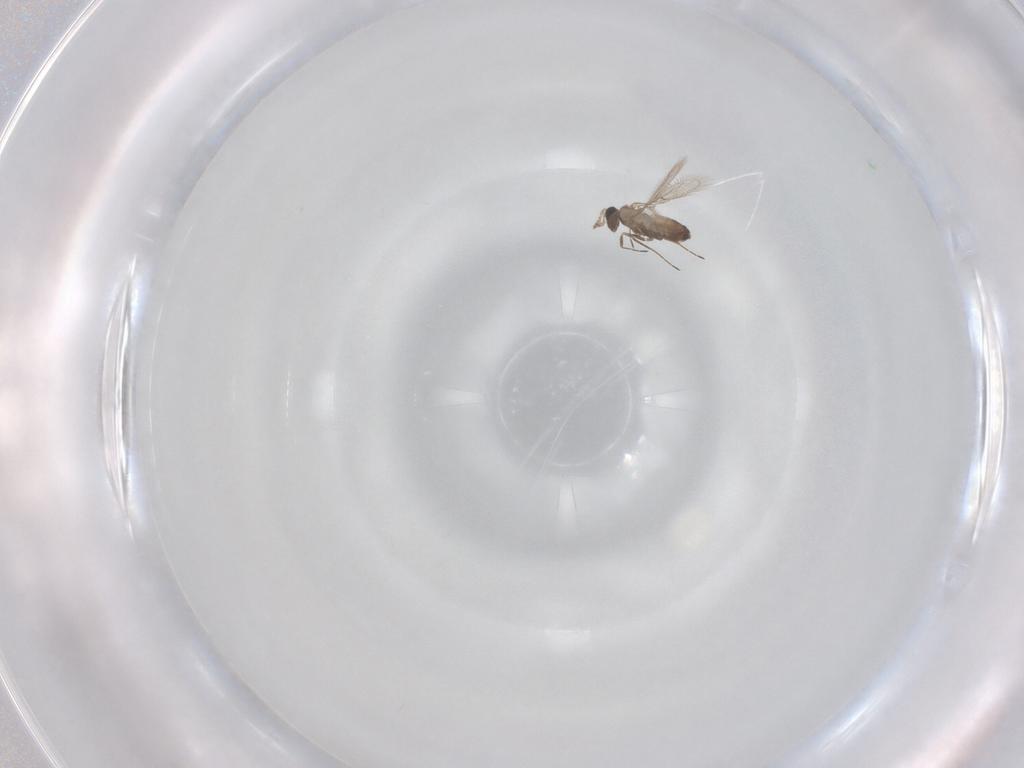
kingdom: Animalia
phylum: Arthropoda
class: Insecta
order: Hymenoptera
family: Trichogrammatidae
